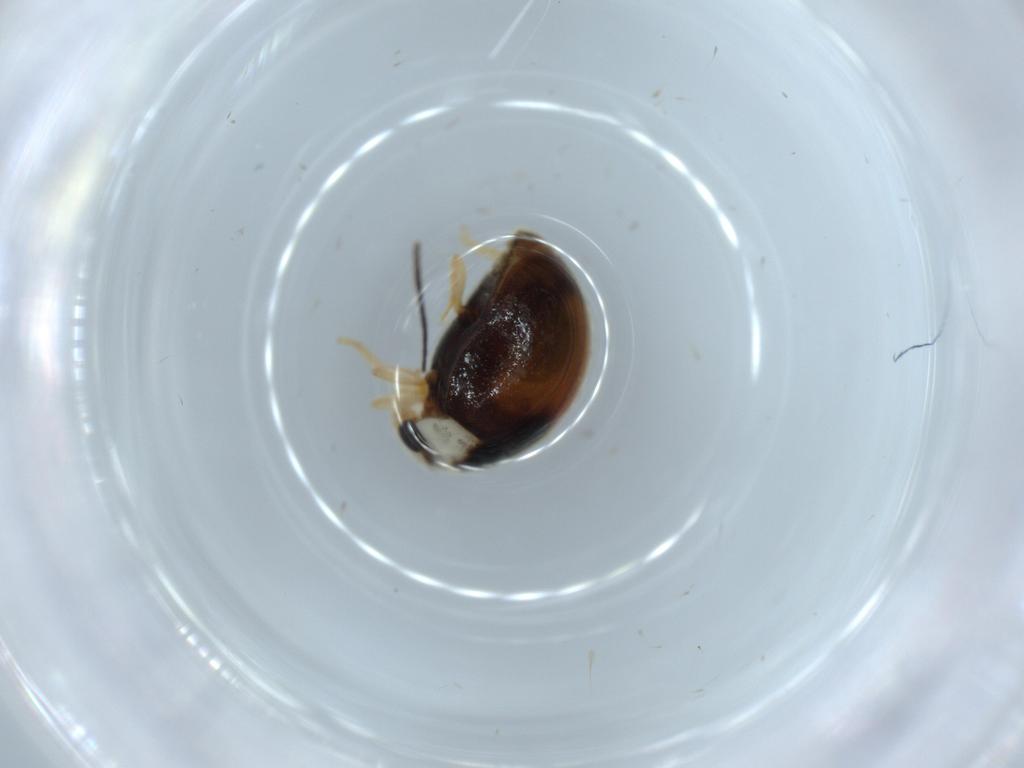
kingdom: Animalia
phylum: Arthropoda
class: Insecta
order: Coleoptera
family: Coccinellidae
